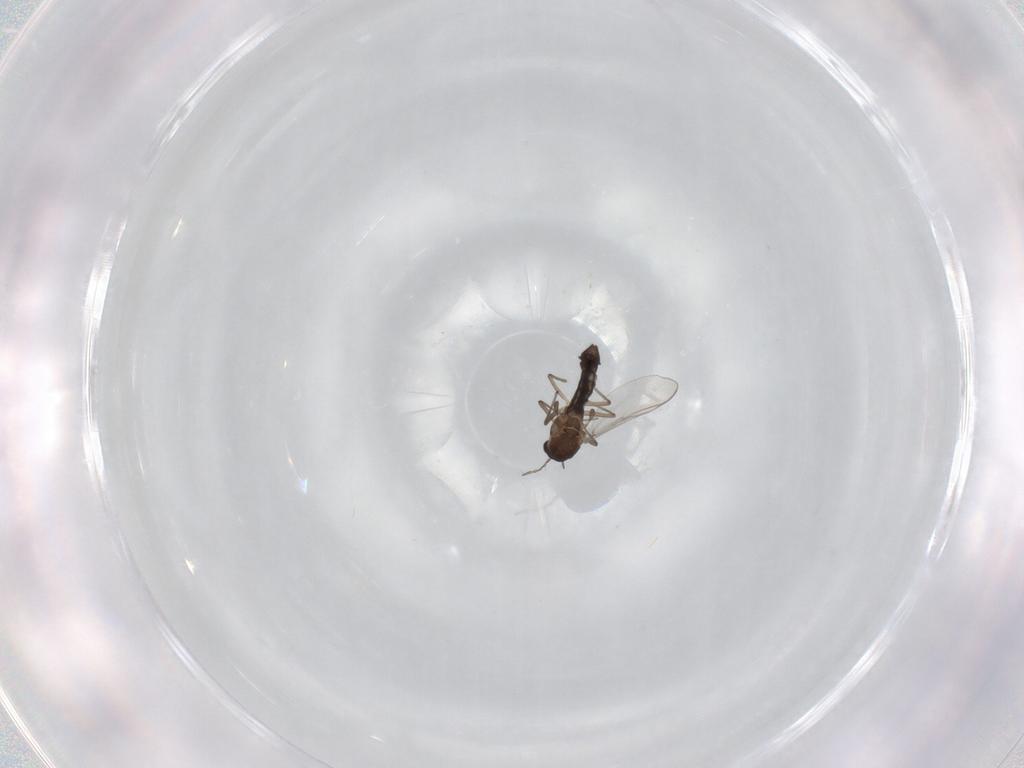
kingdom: Animalia
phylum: Arthropoda
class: Insecta
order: Diptera
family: Chironomidae
